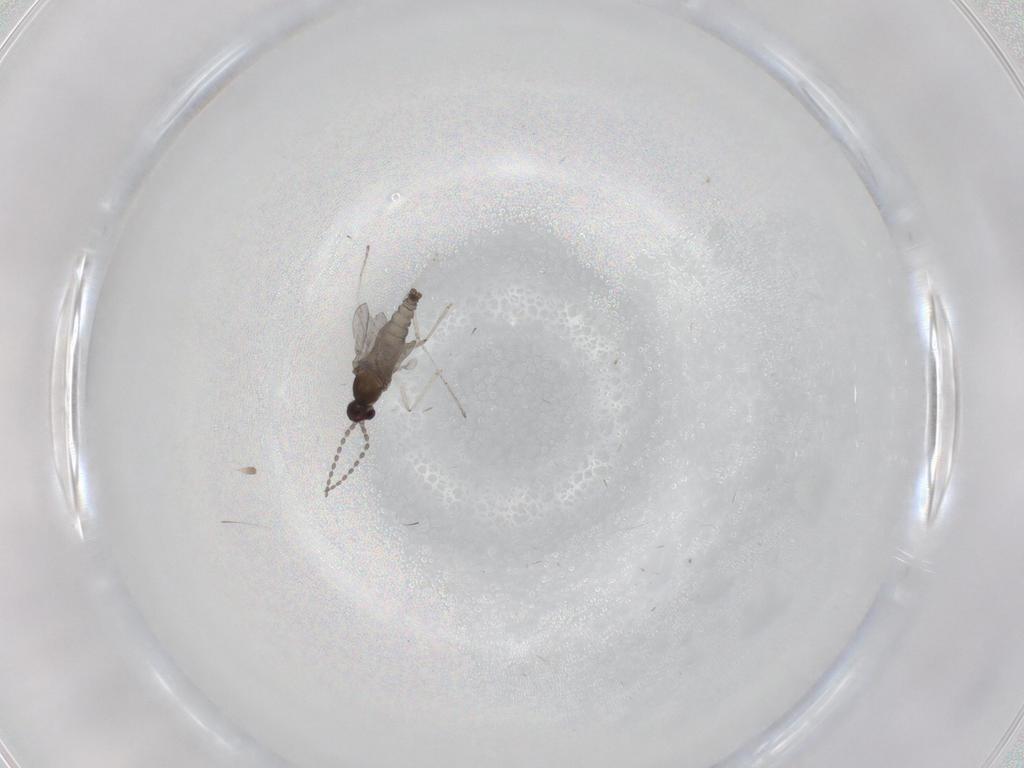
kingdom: Animalia
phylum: Arthropoda
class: Insecta
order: Diptera
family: Cecidomyiidae
